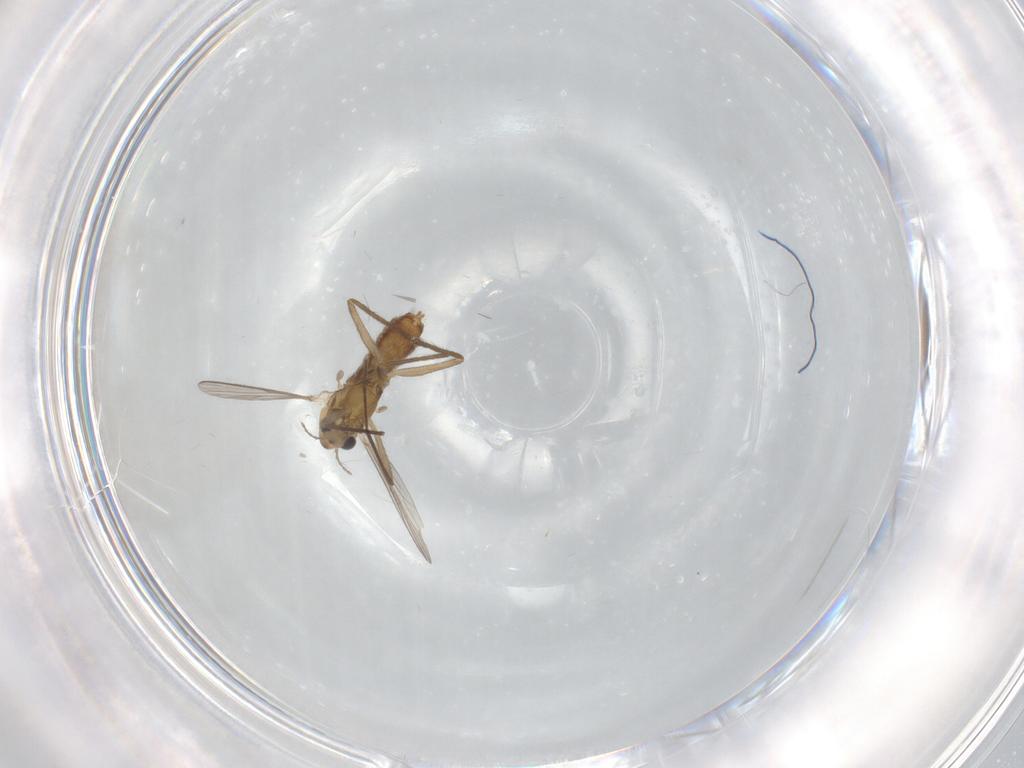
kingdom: Animalia
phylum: Arthropoda
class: Insecta
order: Diptera
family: Chironomidae
